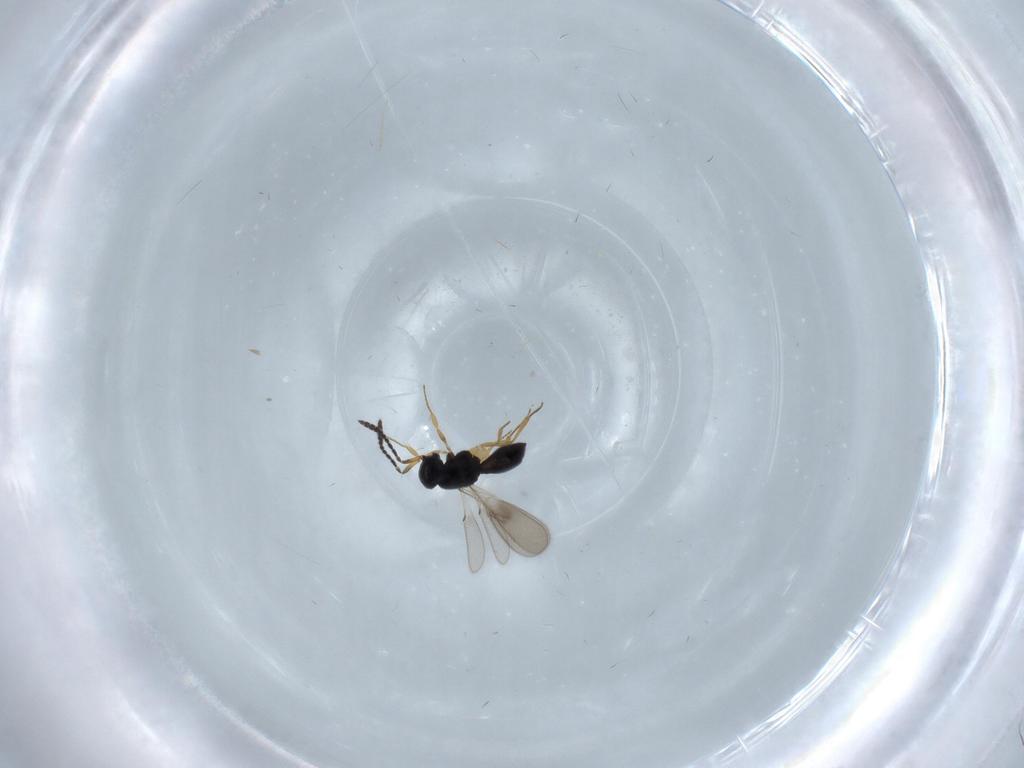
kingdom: Animalia
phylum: Arthropoda
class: Insecta
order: Hymenoptera
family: Scelionidae
